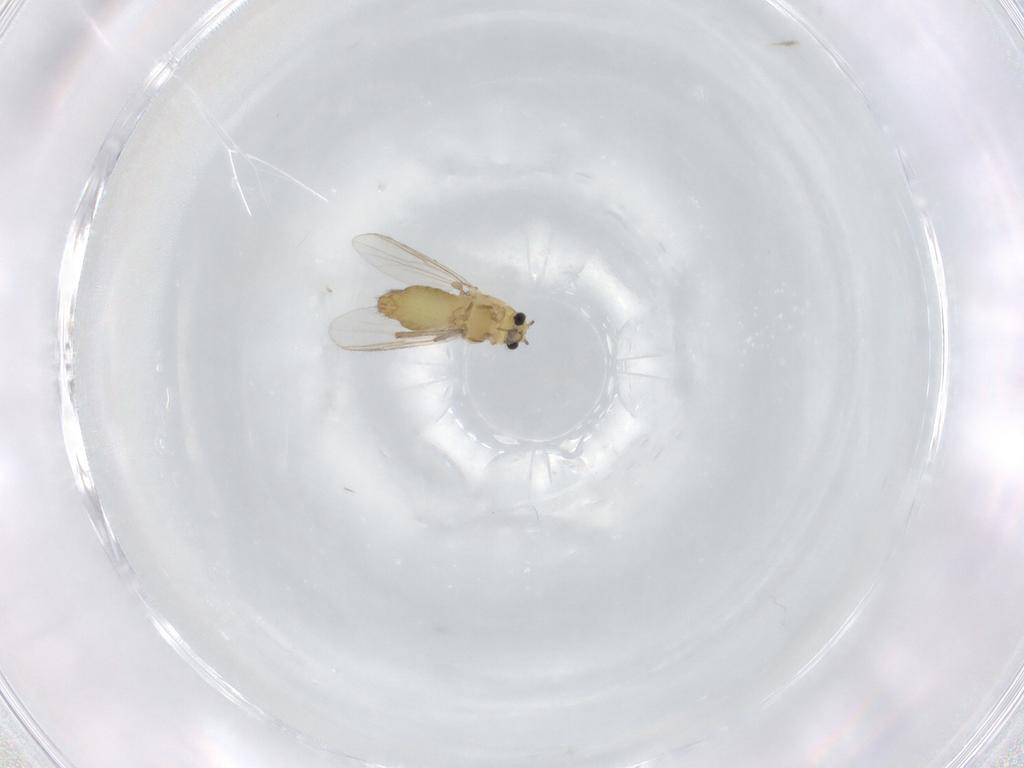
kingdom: Animalia
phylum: Arthropoda
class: Insecta
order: Diptera
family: Chironomidae
